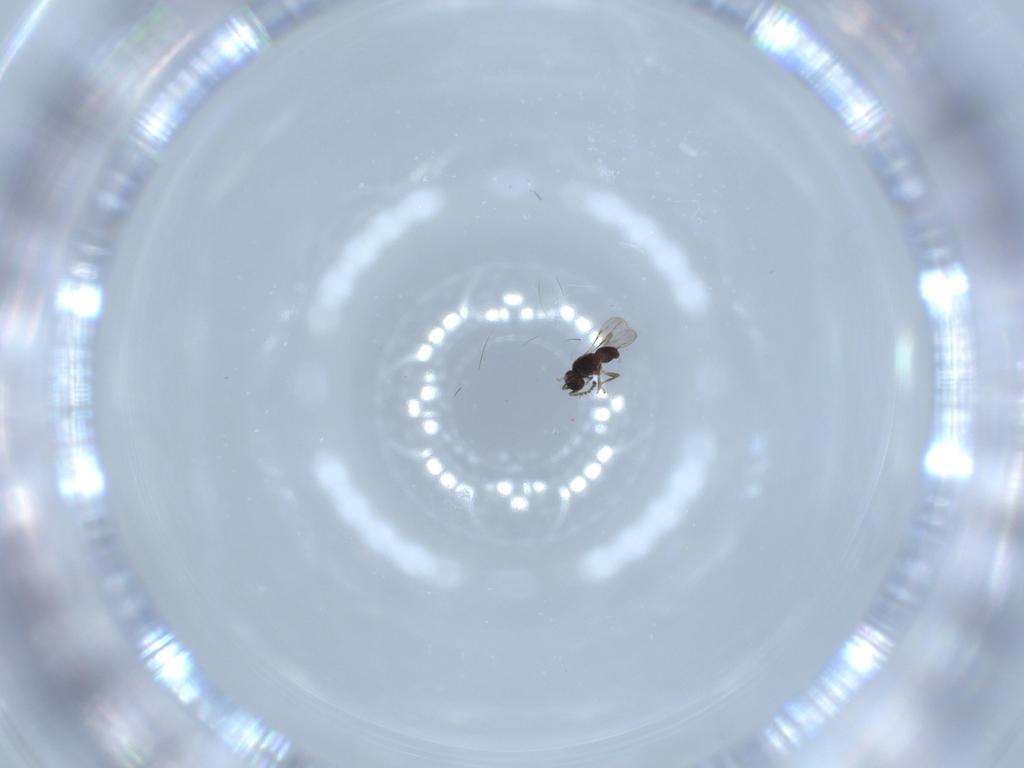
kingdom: Animalia
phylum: Arthropoda
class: Insecta
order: Hymenoptera
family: Ceraphronidae
